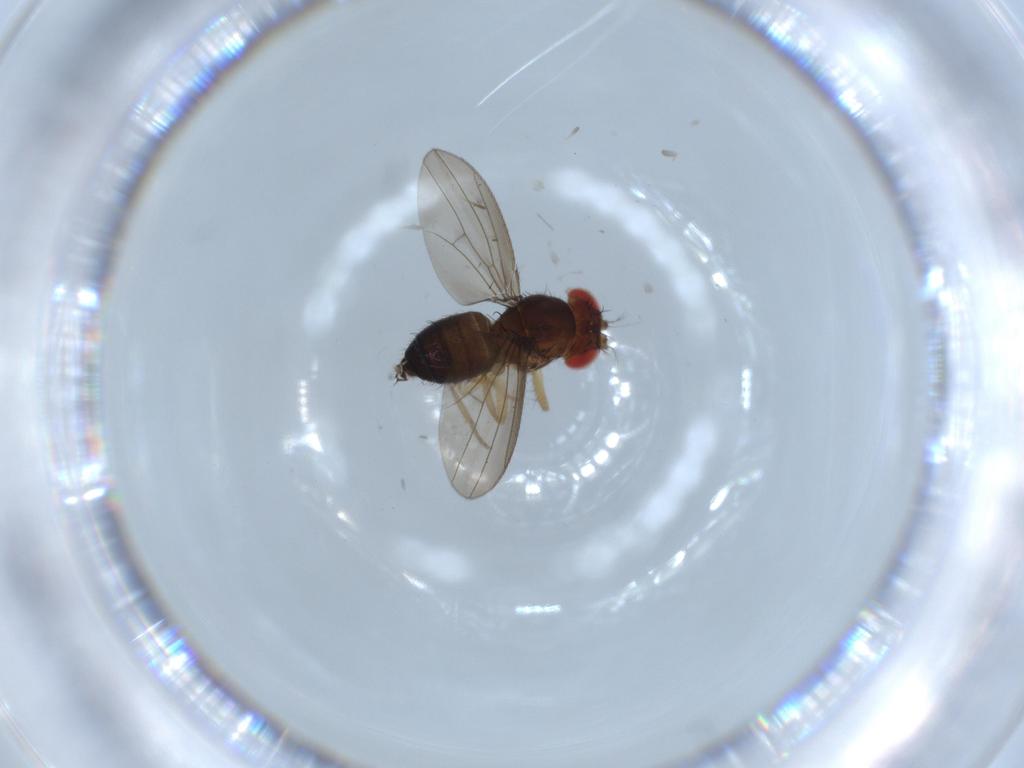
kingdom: Animalia
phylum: Arthropoda
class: Insecta
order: Diptera
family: Drosophilidae
